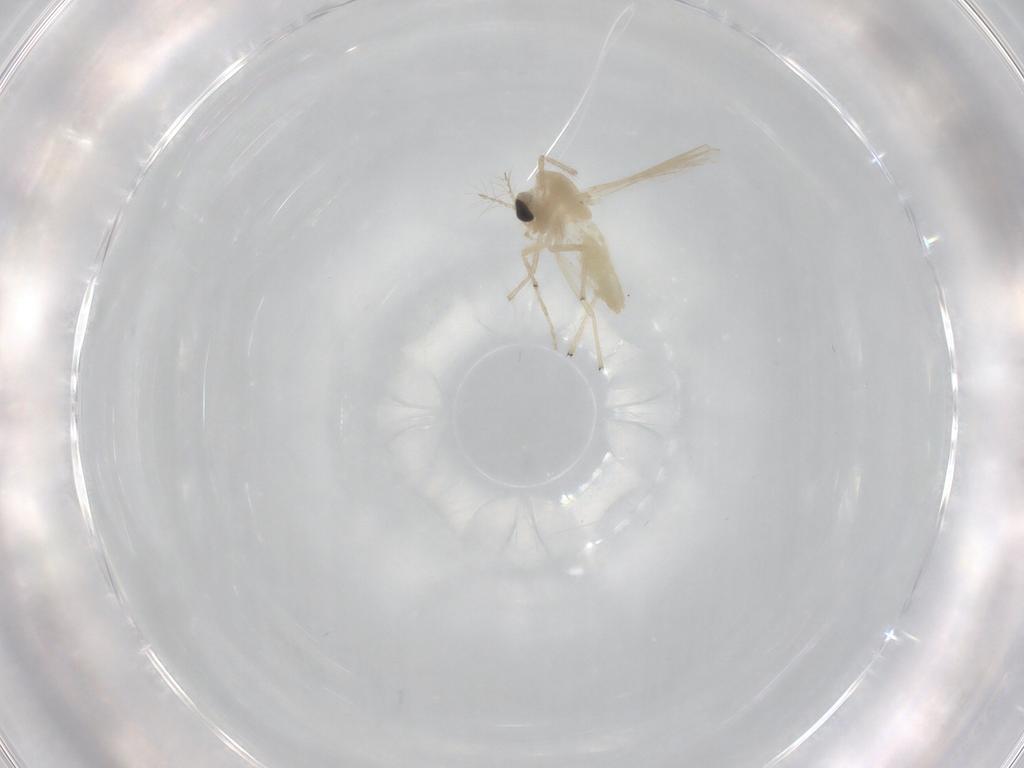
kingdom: Animalia
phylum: Arthropoda
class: Insecta
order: Diptera
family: Chironomidae
